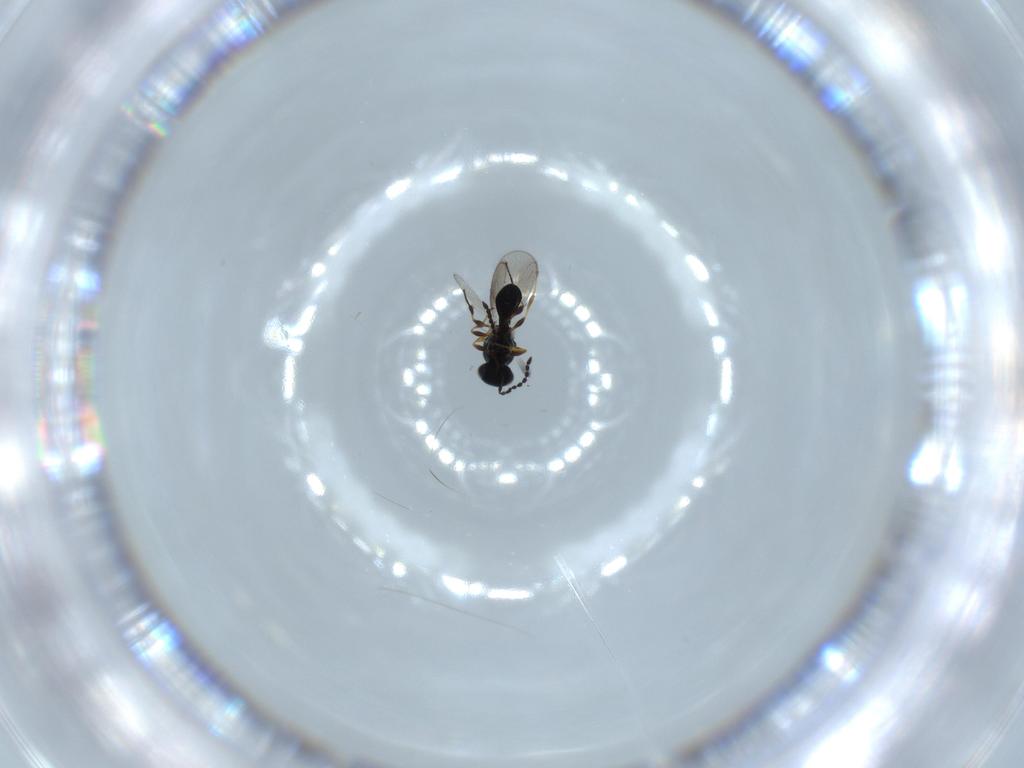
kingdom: Animalia
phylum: Arthropoda
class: Insecta
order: Hymenoptera
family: Platygastridae
